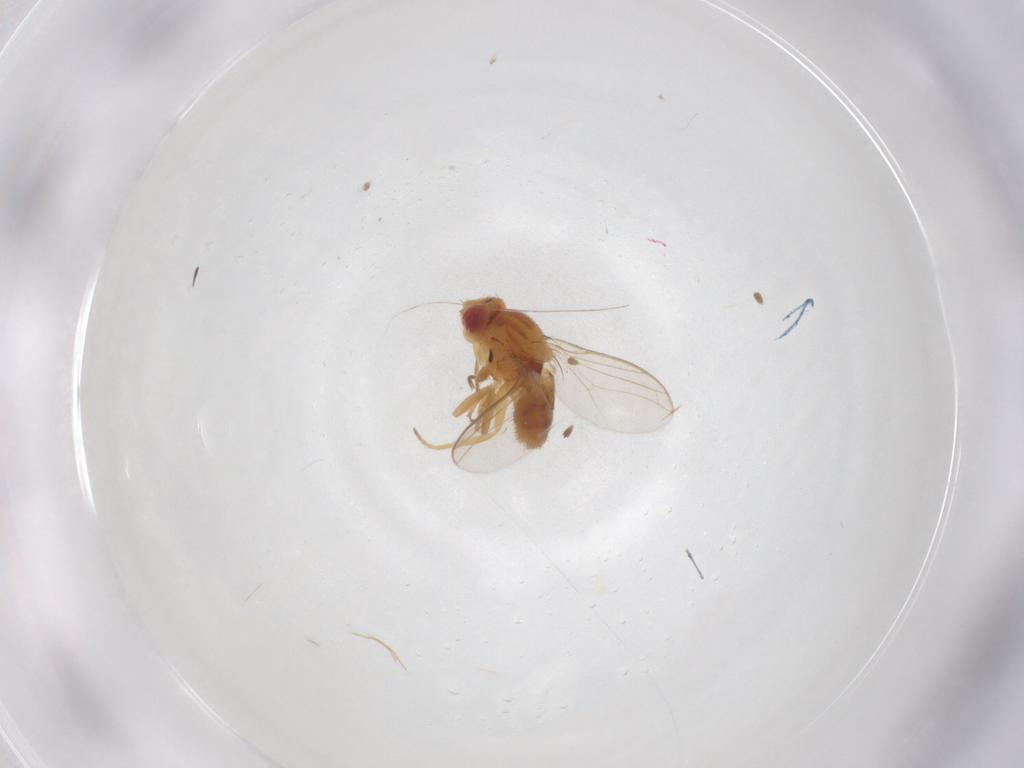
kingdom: Animalia
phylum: Arthropoda
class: Insecta
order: Diptera
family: Chloropidae
